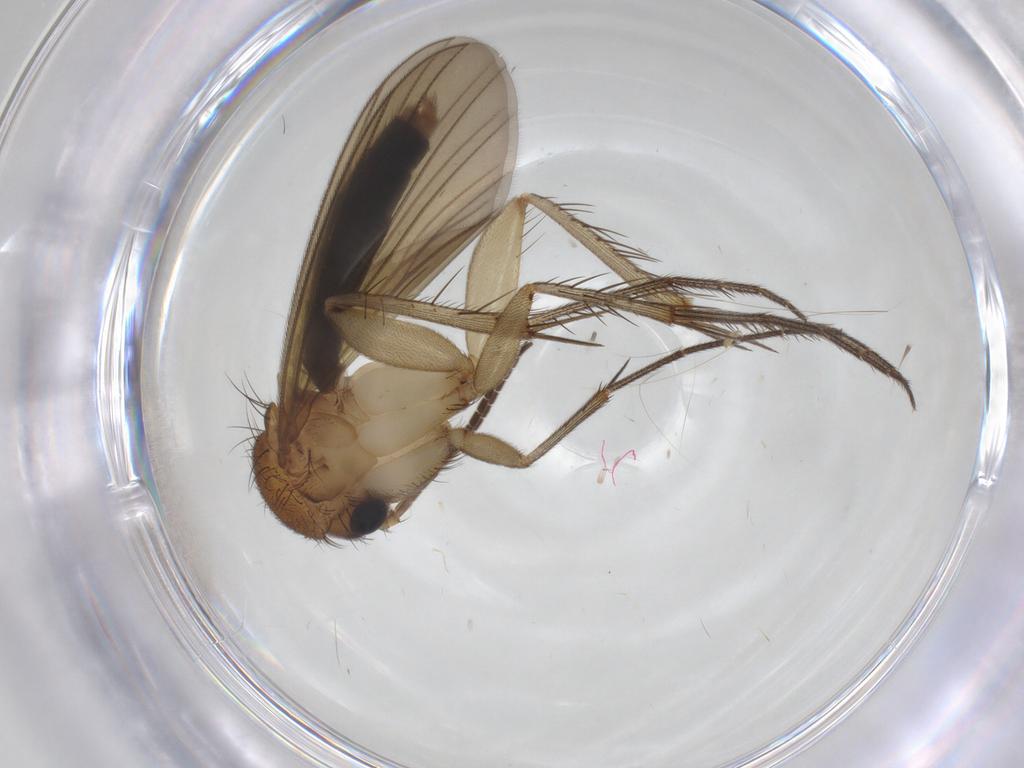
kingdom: Animalia
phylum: Arthropoda
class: Insecta
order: Diptera
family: Mycetophilidae
